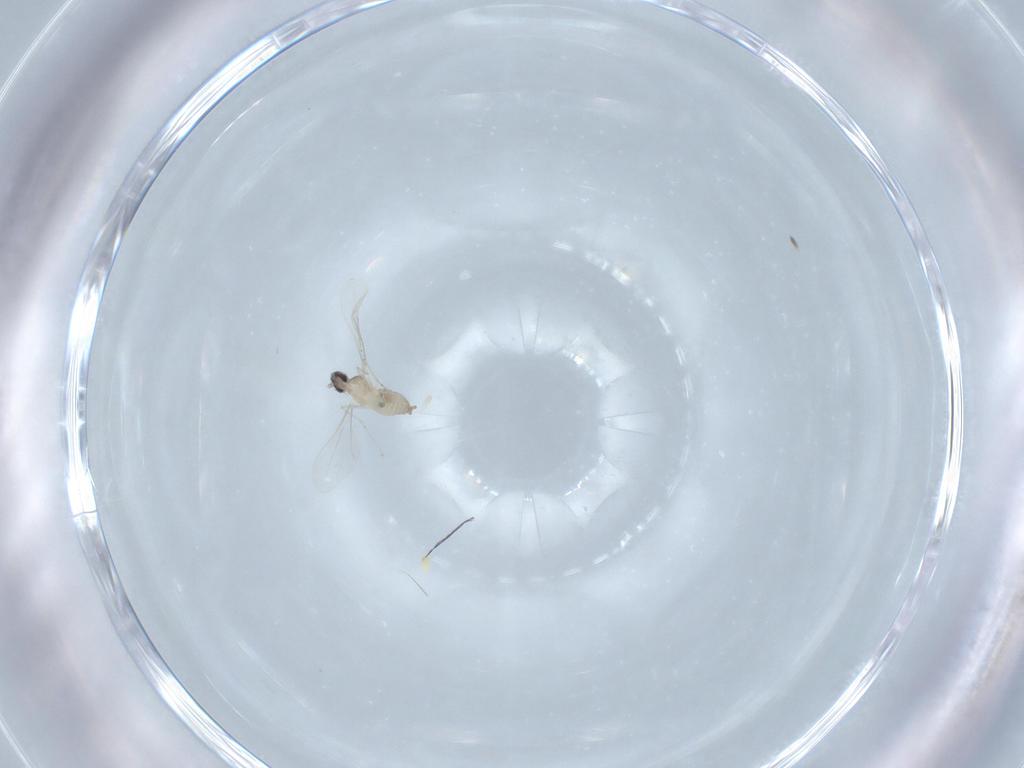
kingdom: Animalia
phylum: Arthropoda
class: Insecta
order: Diptera
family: Cecidomyiidae
